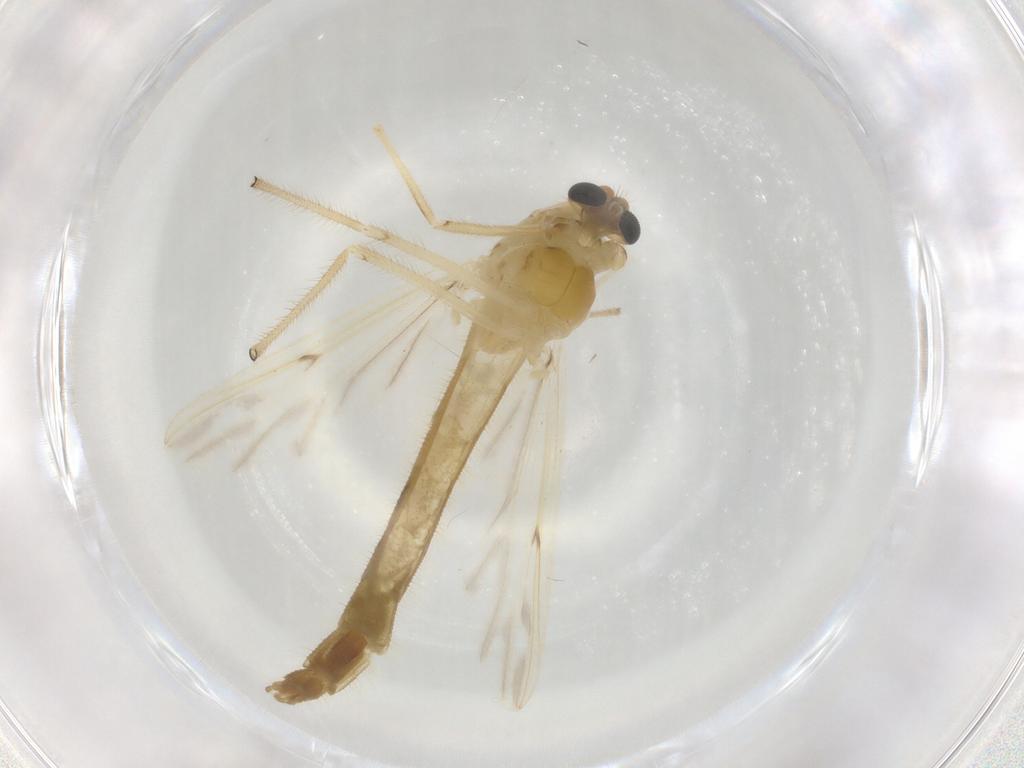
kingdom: Animalia
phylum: Arthropoda
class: Insecta
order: Diptera
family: Chironomidae
